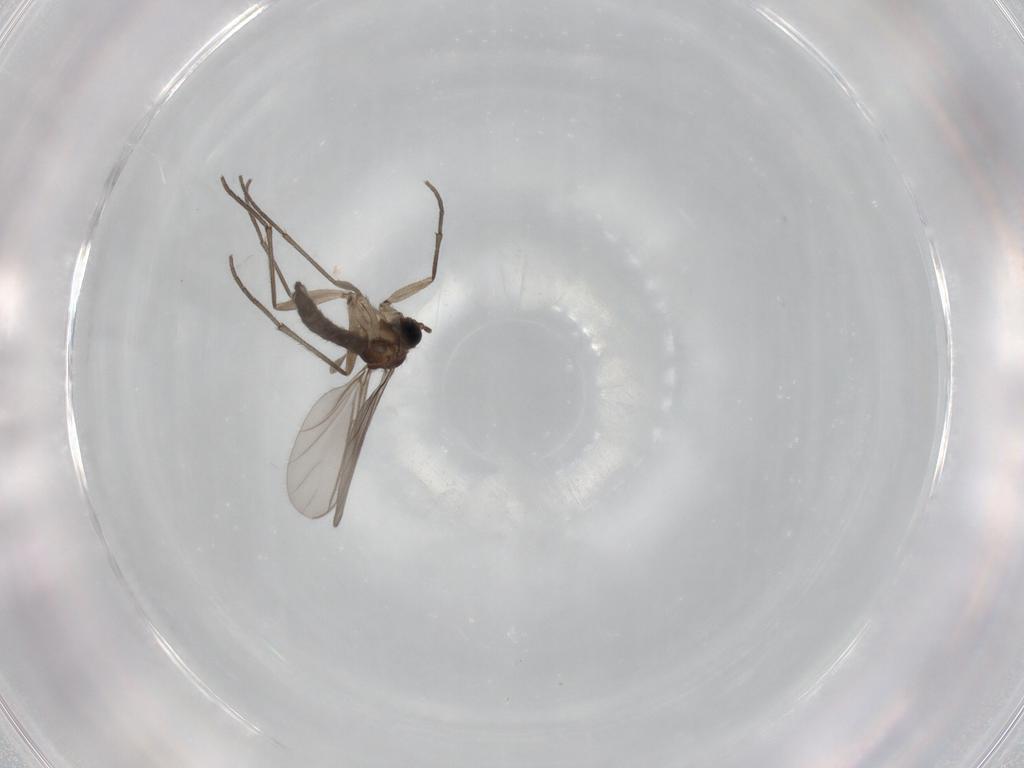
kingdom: Animalia
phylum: Arthropoda
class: Insecta
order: Diptera
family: Sciaridae
